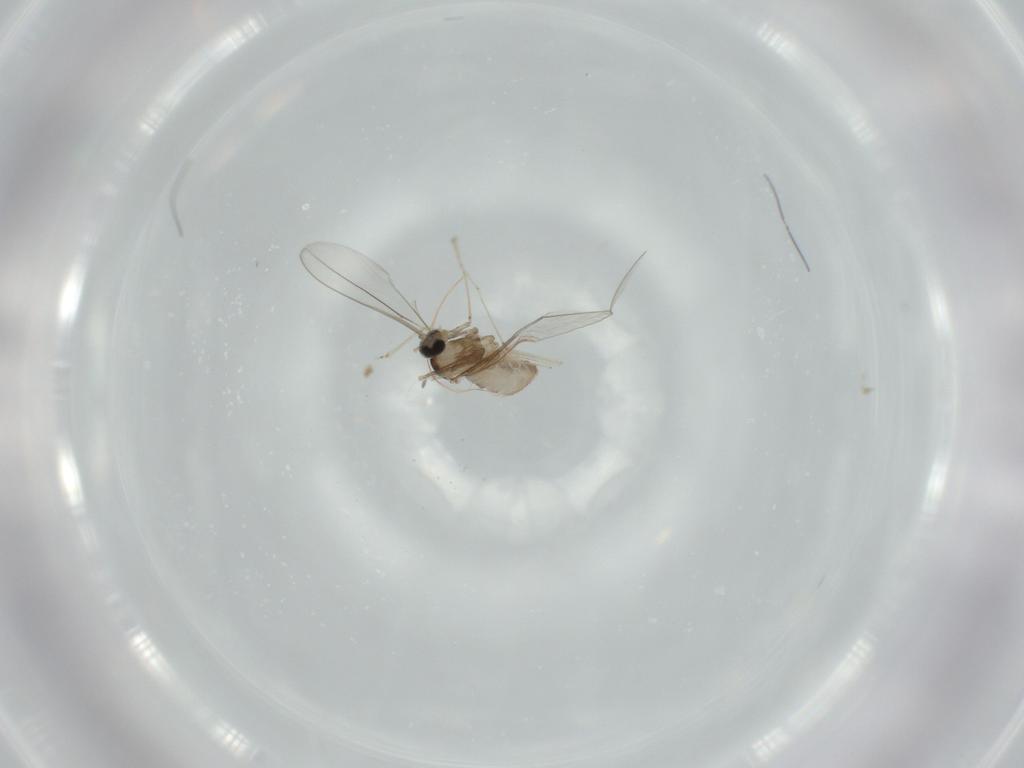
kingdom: Animalia
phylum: Arthropoda
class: Insecta
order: Diptera
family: Cecidomyiidae
